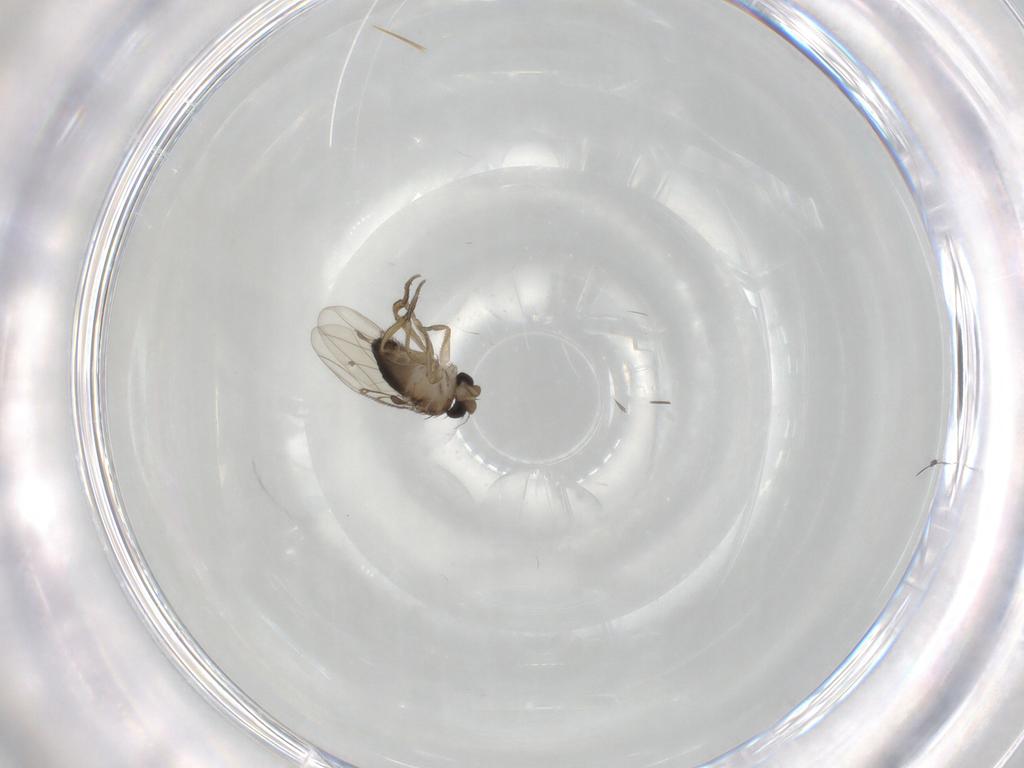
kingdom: Animalia
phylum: Arthropoda
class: Insecta
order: Diptera
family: Milichiidae
